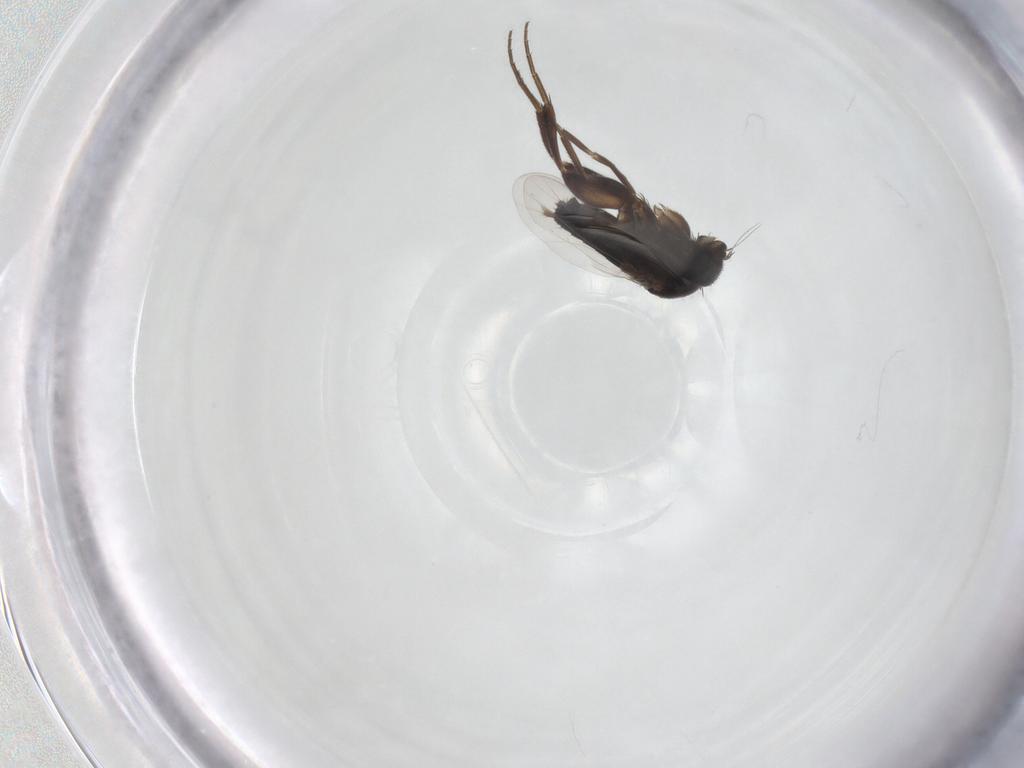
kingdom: Animalia
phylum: Arthropoda
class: Insecta
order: Diptera
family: Phoridae
